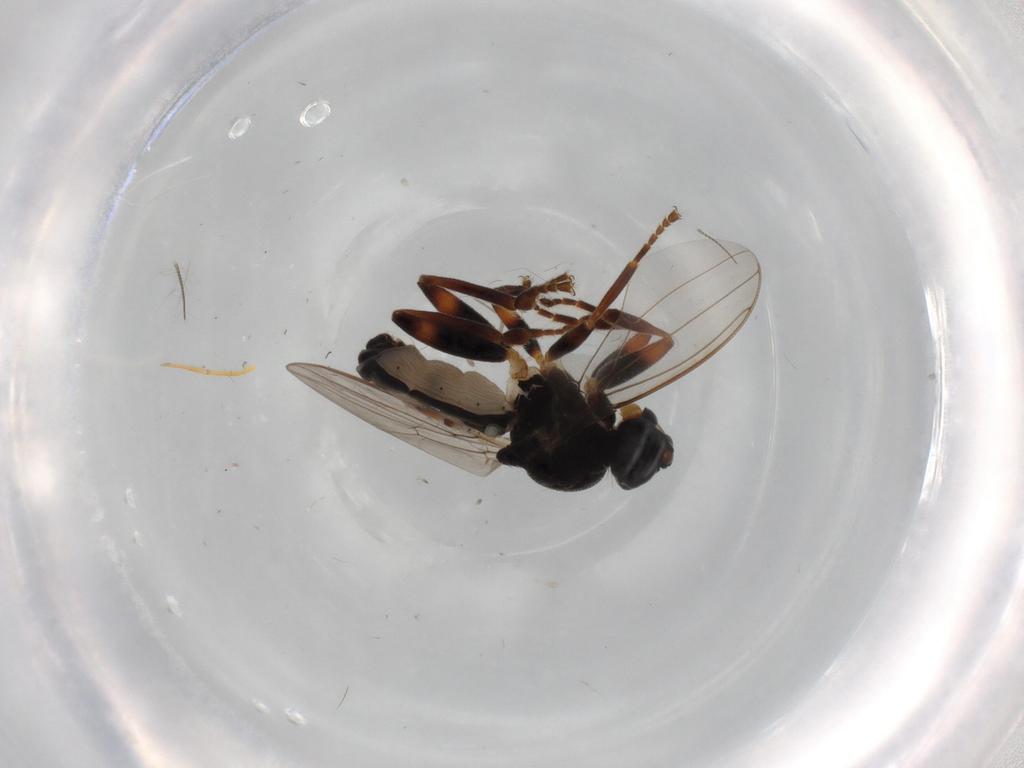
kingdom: Animalia
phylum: Arthropoda
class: Insecta
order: Diptera
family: Sphaeroceridae
